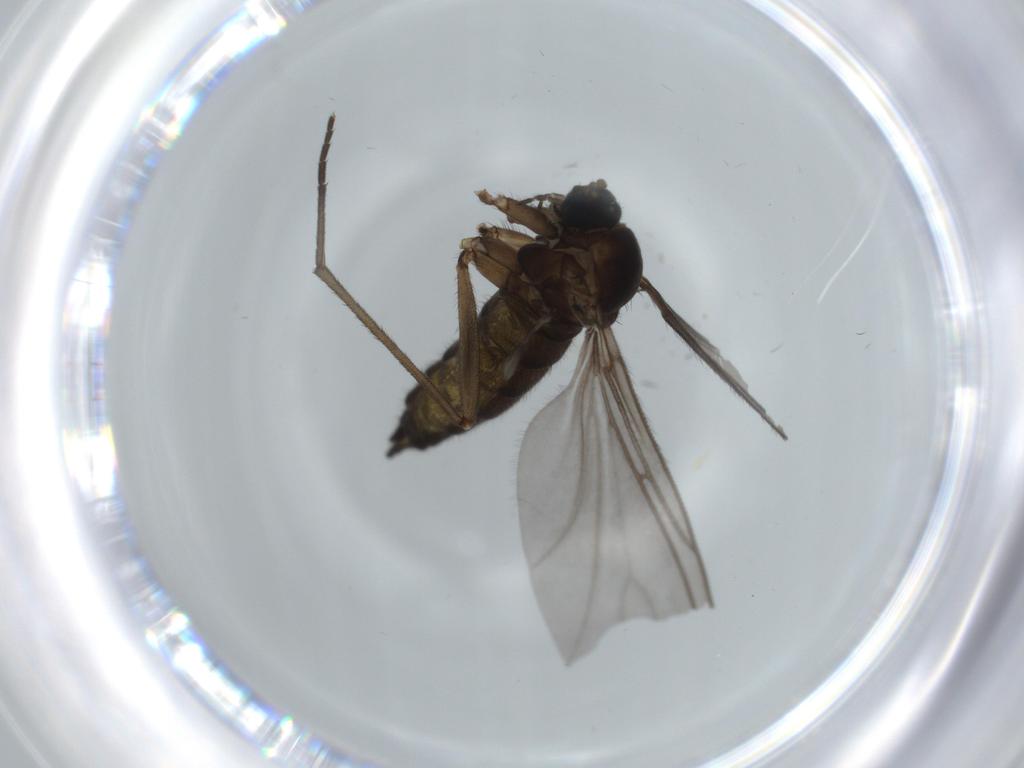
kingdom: Animalia
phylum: Arthropoda
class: Insecta
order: Diptera
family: Sciaridae
